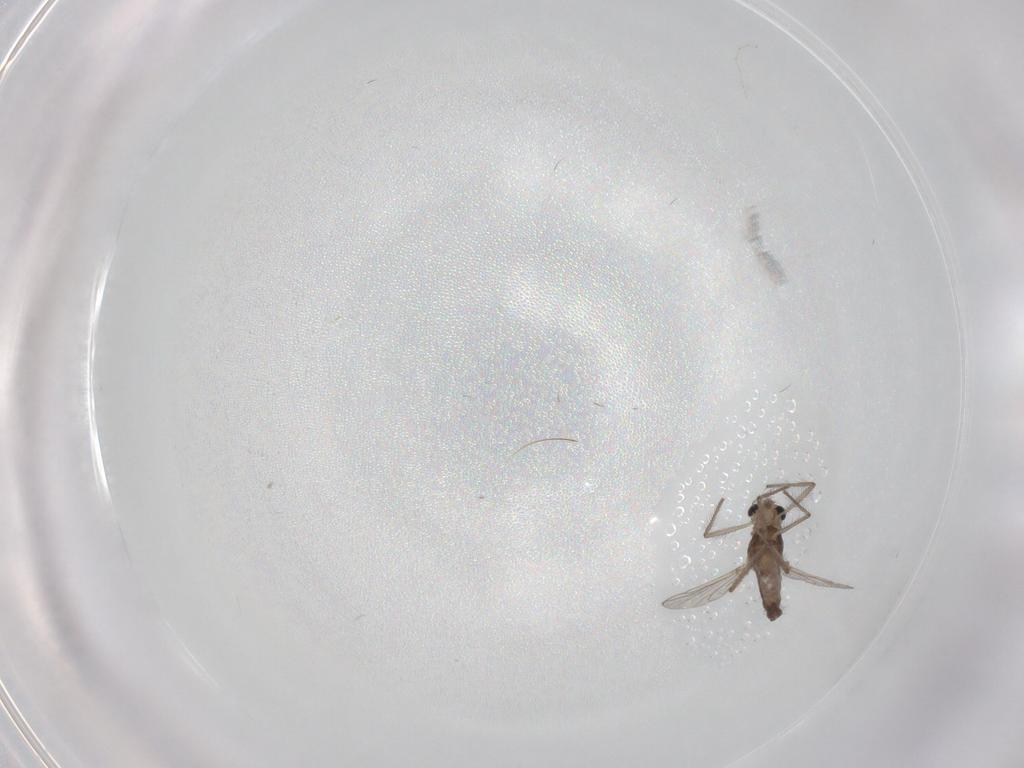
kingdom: Animalia
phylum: Arthropoda
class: Insecta
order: Diptera
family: Chironomidae
